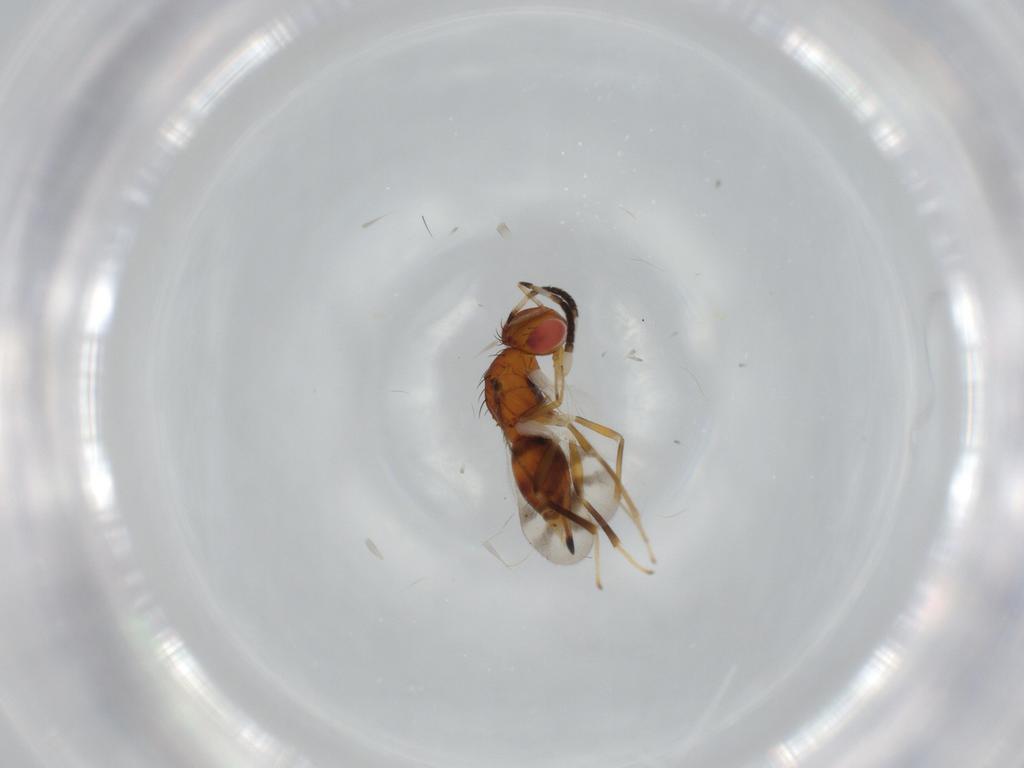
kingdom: Animalia
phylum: Arthropoda
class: Insecta
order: Hymenoptera
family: Diparidae
